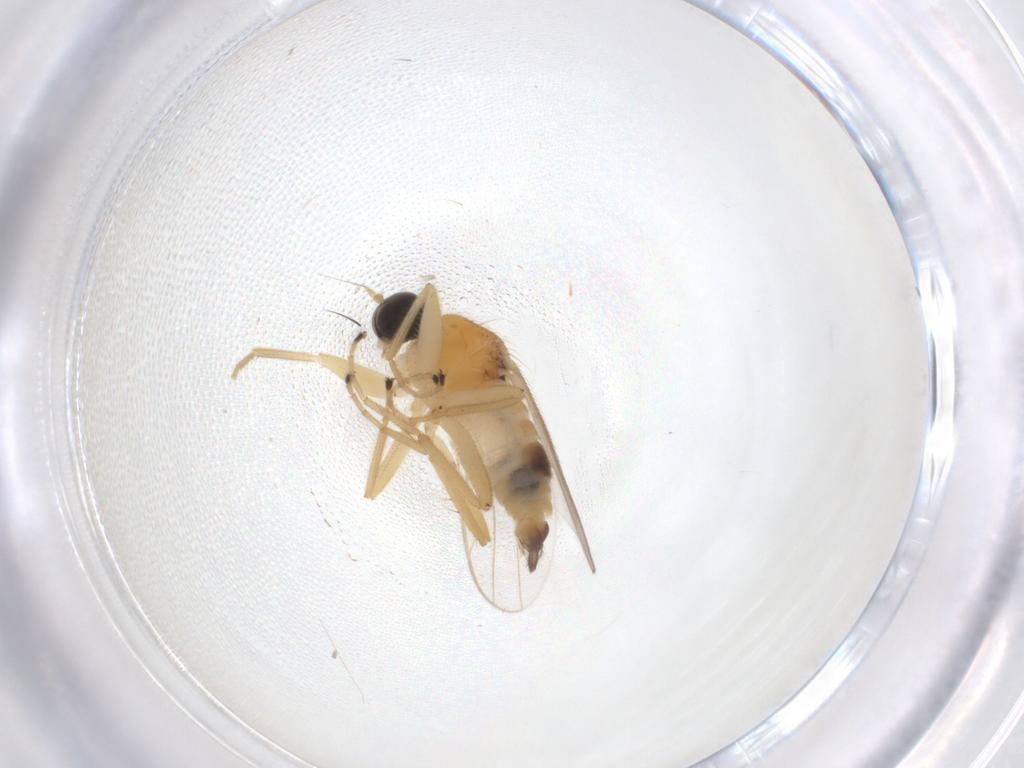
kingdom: Animalia
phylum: Arthropoda
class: Insecta
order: Diptera
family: Hybotidae
